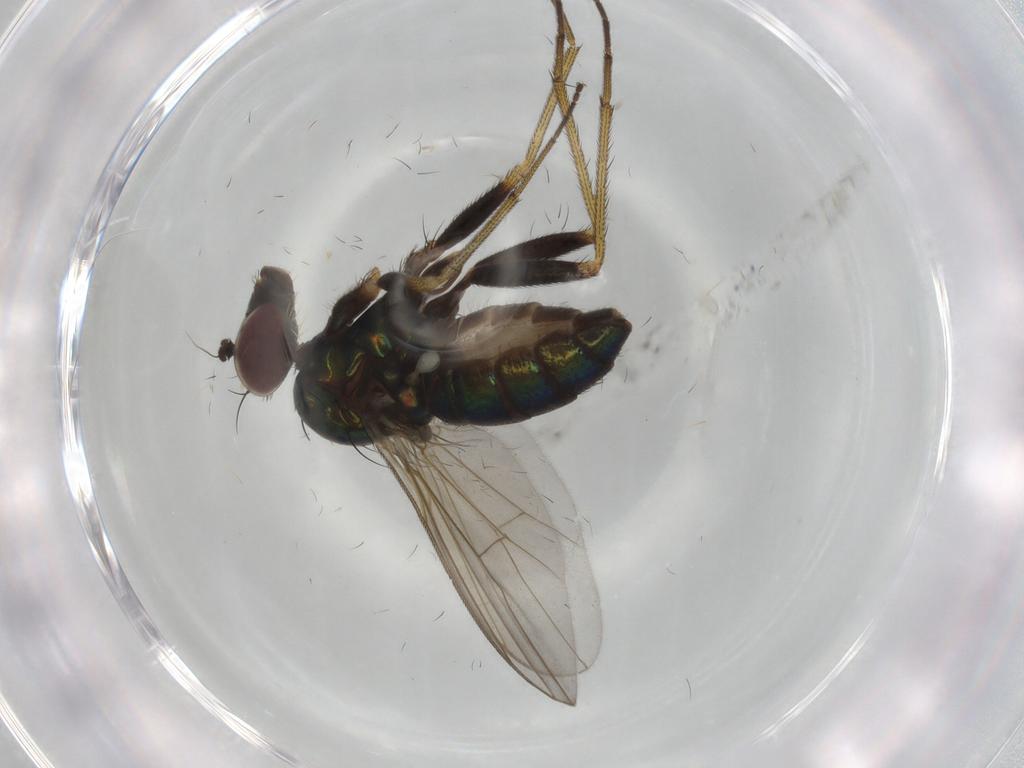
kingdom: Animalia
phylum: Arthropoda
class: Insecta
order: Diptera
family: Dolichopodidae
